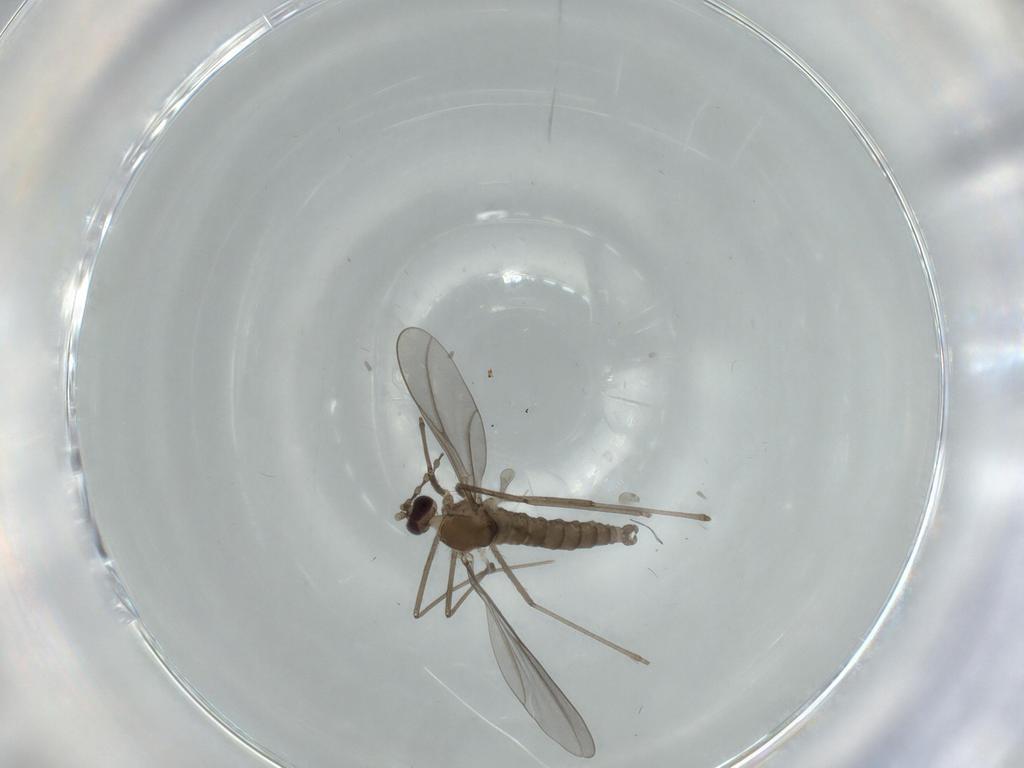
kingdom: Animalia
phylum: Arthropoda
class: Insecta
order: Diptera
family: Cecidomyiidae
